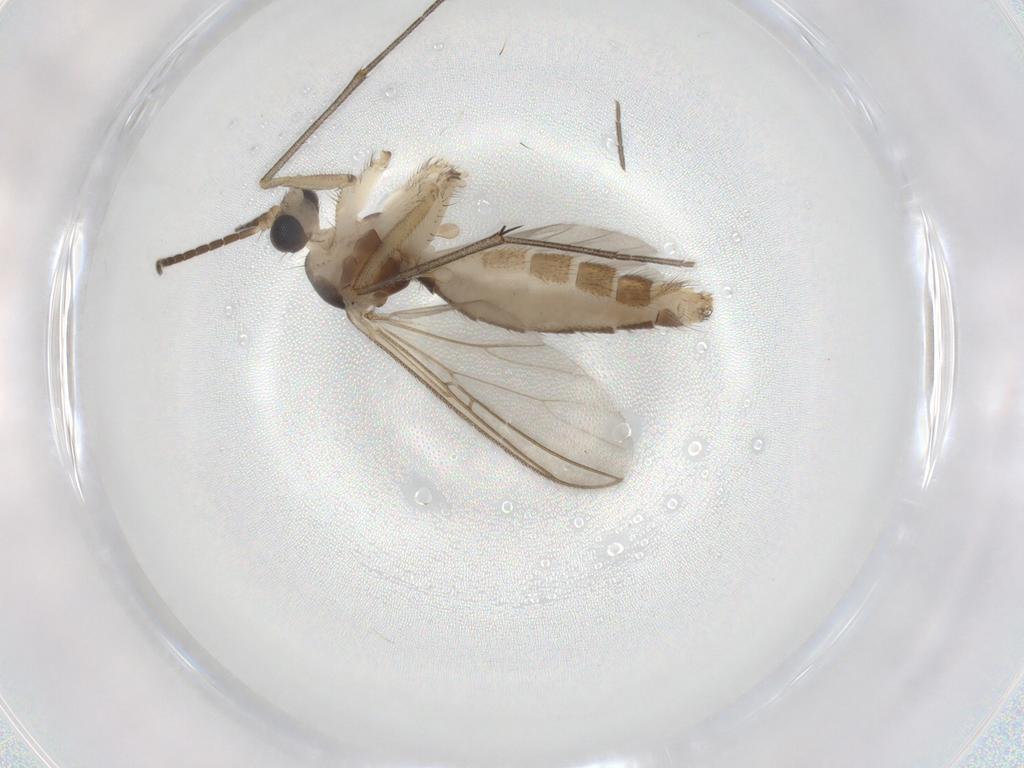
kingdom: Animalia
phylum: Arthropoda
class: Insecta
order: Diptera
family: Mycetophilidae
